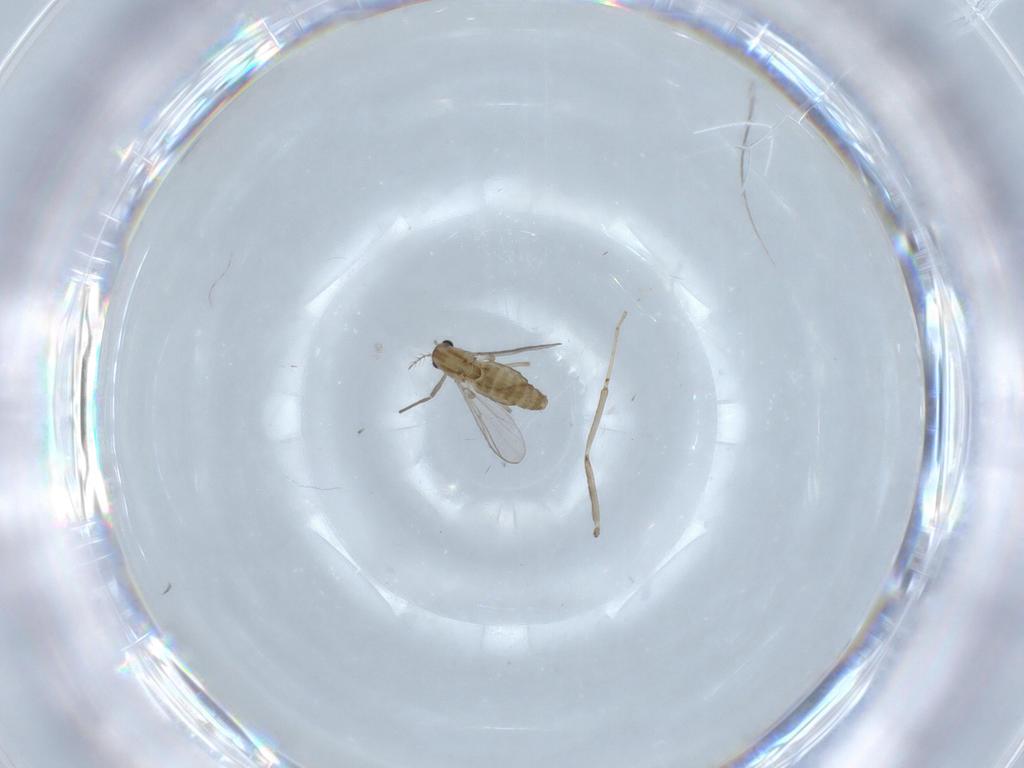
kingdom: Animalia
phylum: Arthropoda
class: Insecta
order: Diptera
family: Chironomidae
